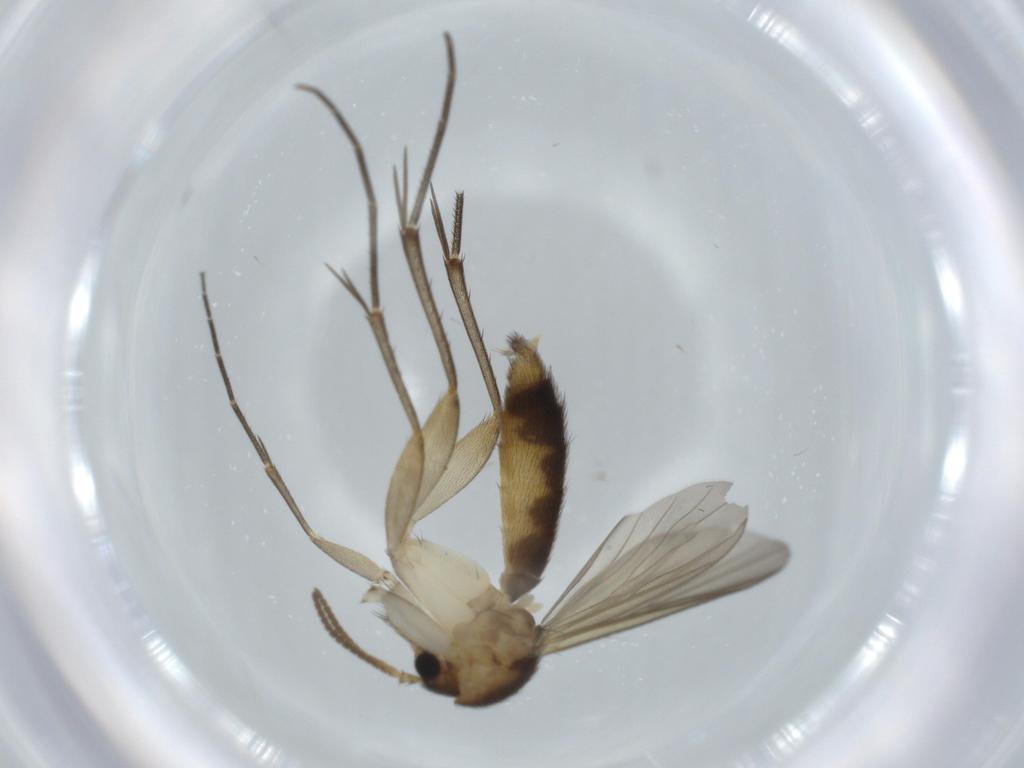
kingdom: Animalia
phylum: Arthropoda
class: Insecta
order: Diptera
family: Mycetophilidae
